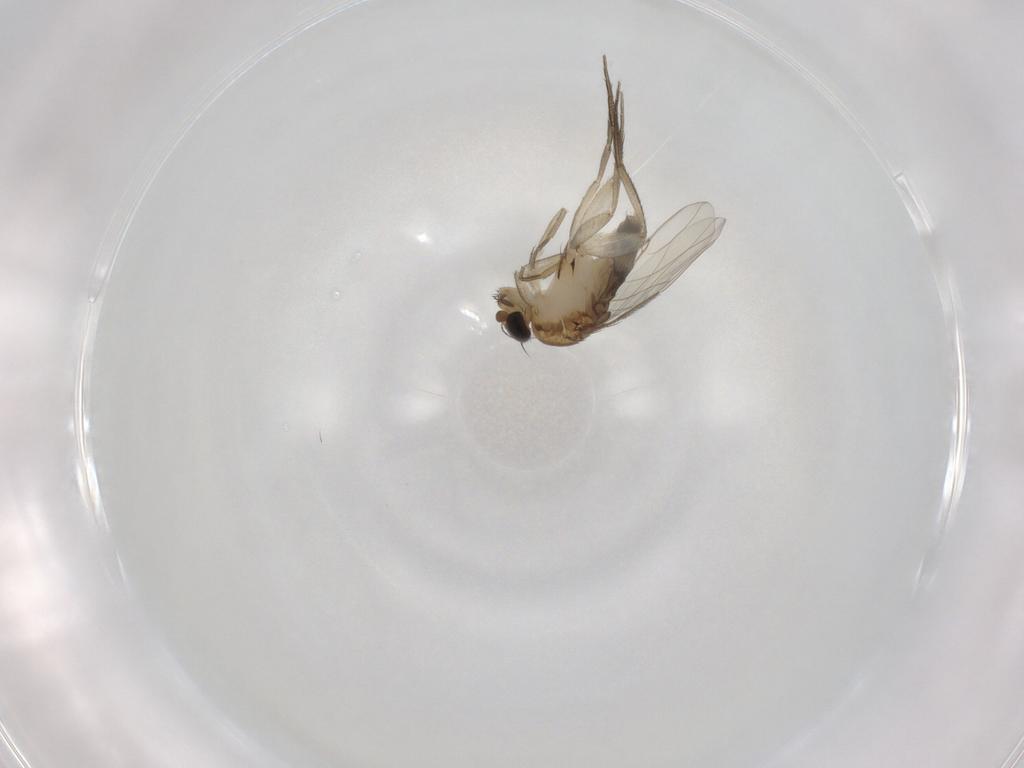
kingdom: Animalia
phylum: Arthropoda
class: Insecta
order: Diptera
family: Phoridae
